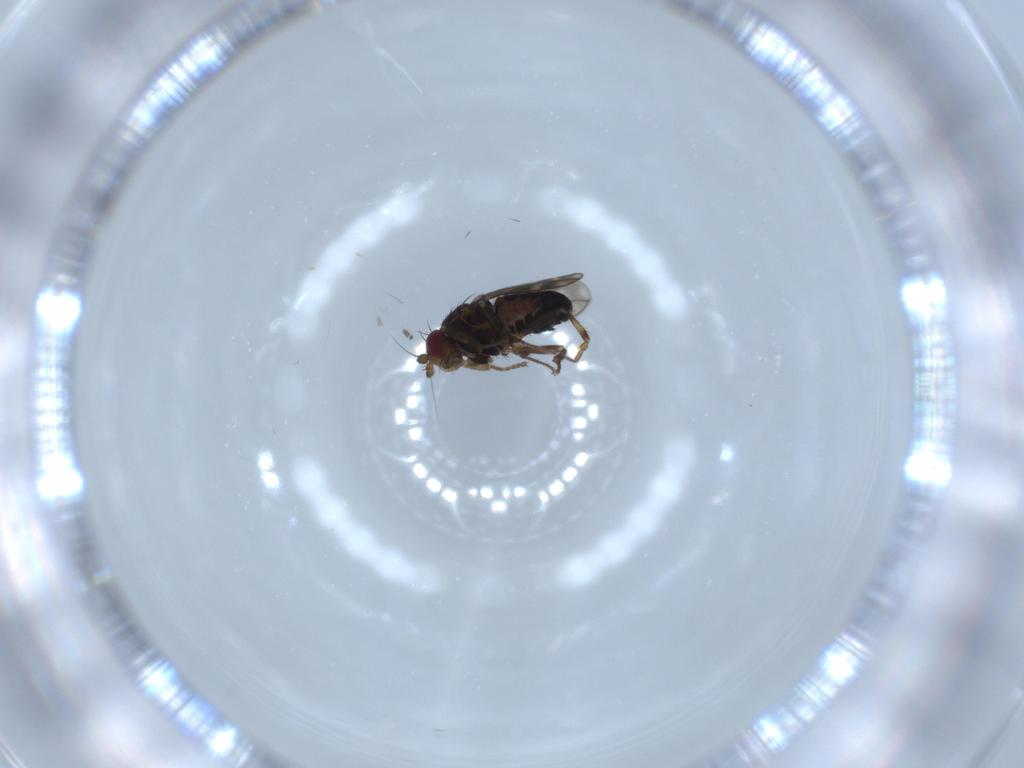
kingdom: Animalia
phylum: Arthropoda
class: Insecta
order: Diptera
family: Sphaeroceridae
